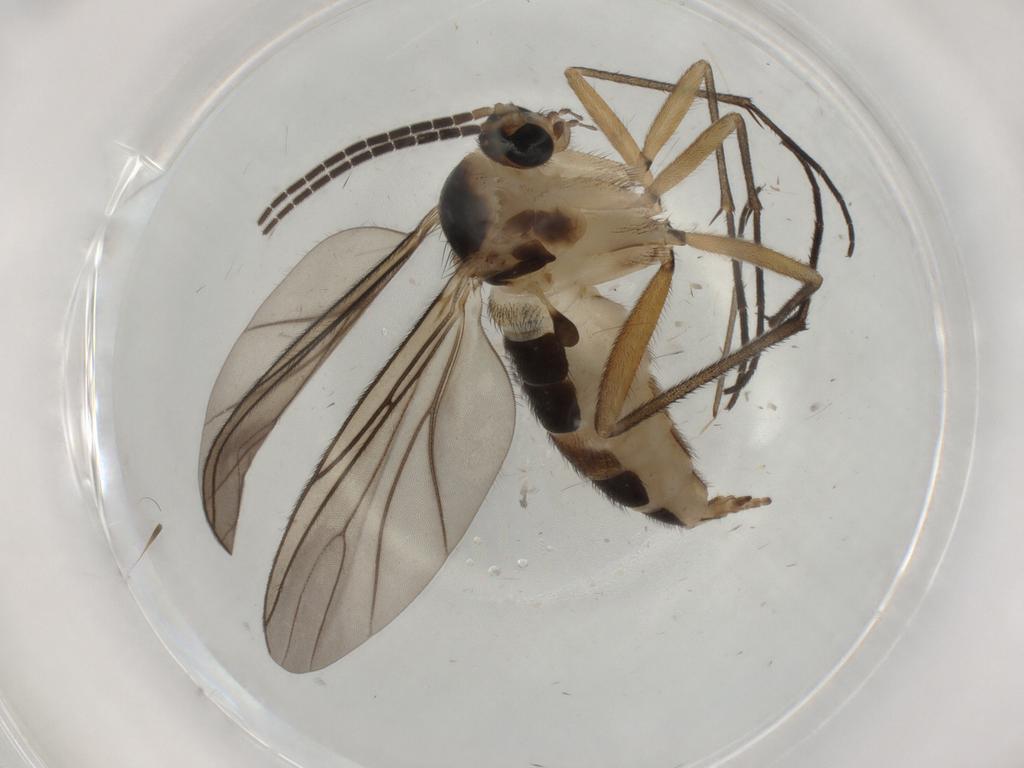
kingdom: Animalia
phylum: Arthropoda
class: Insecta
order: Diptera
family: Sciaridae
